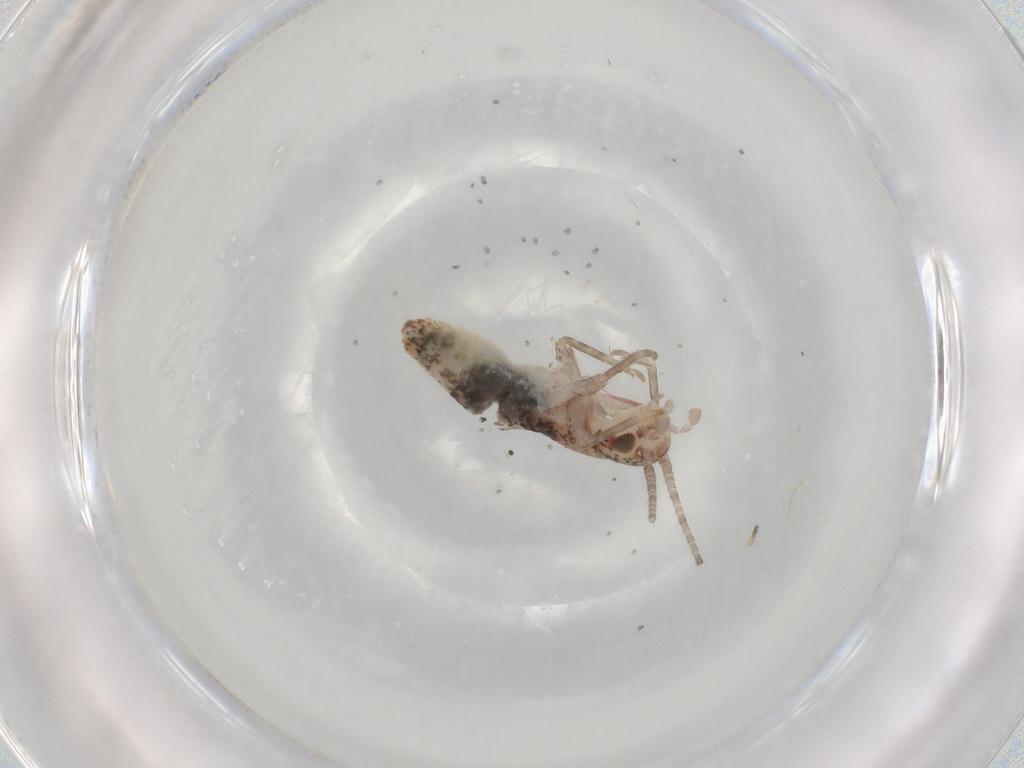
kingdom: Animalia
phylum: Arthropoda
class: Insecta
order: Orthoptera
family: Mogoplistidae
